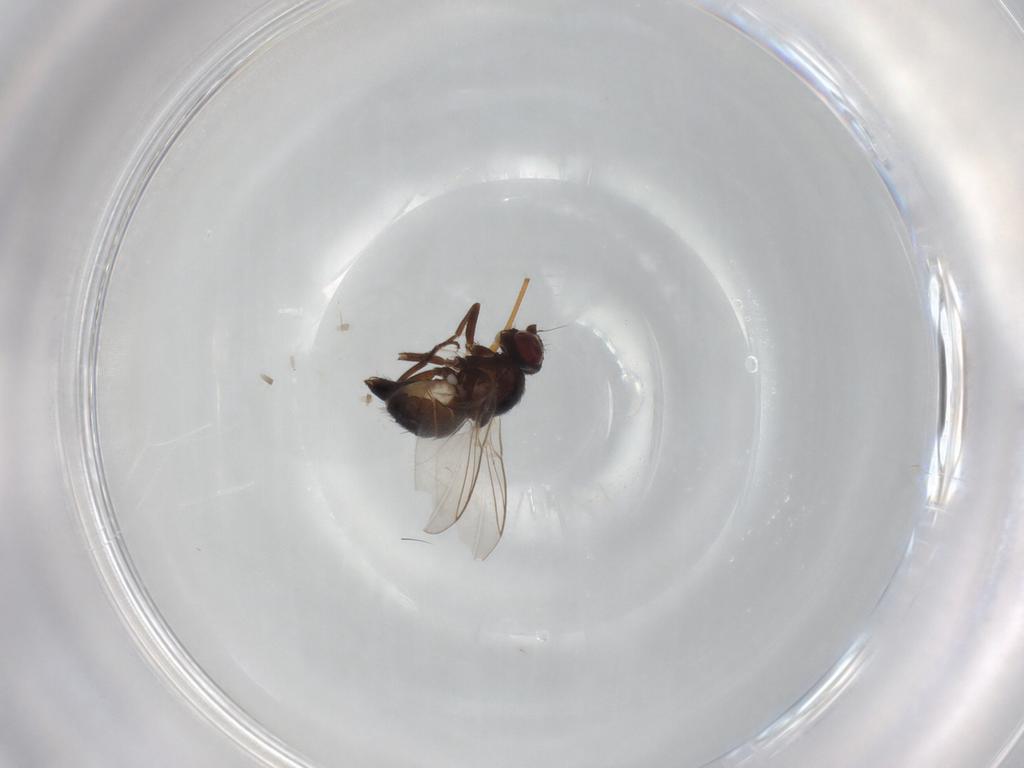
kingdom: Animalia
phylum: Arthropoda
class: Insecta
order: Diptera
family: Agromyzidae
